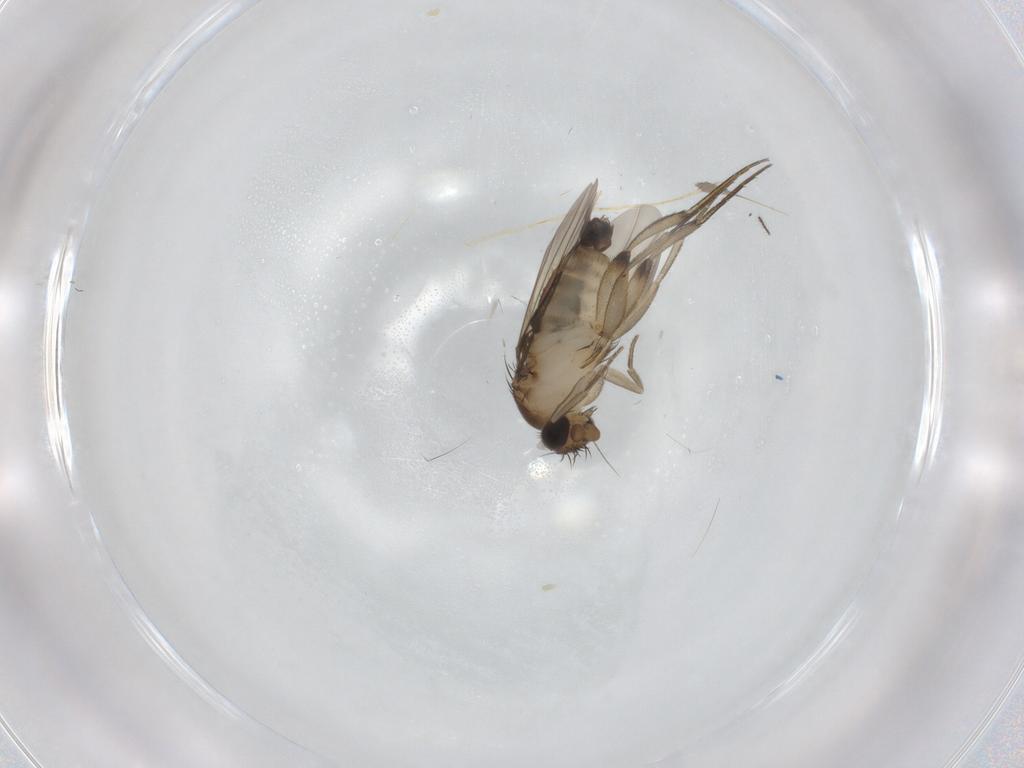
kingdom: Animalia
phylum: Arthropoda
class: Insecta
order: Diptera
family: Phoridae
